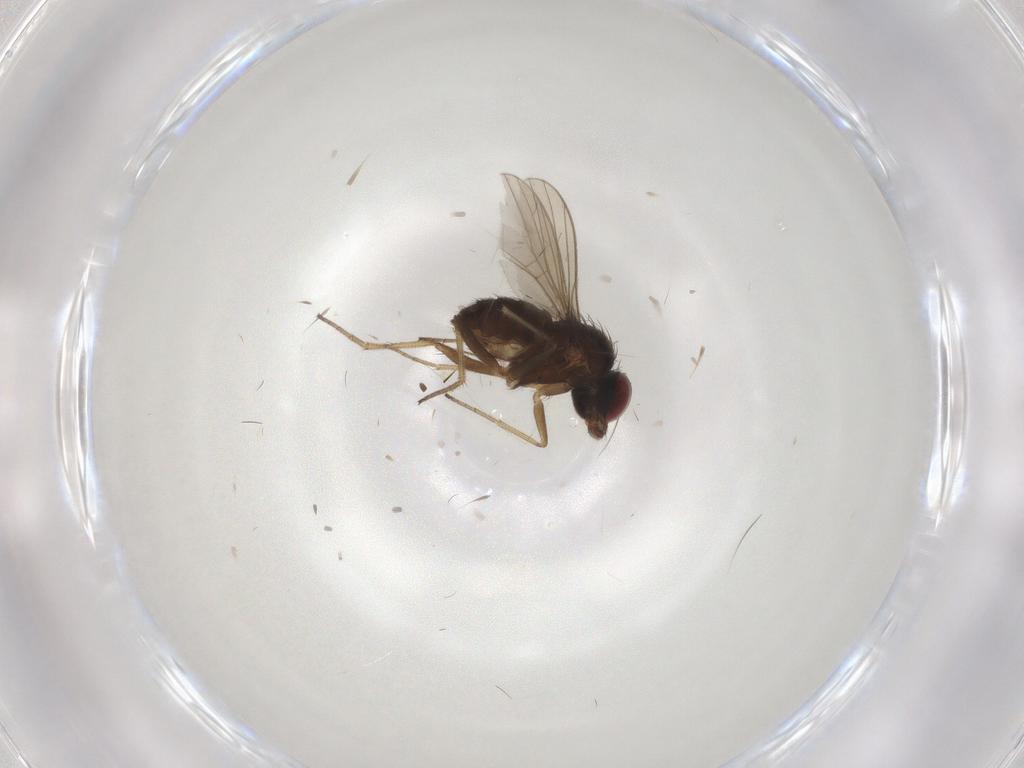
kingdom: Animalia
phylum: Arthropoda
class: Insecta
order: Diptera
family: Dolichopodidae
